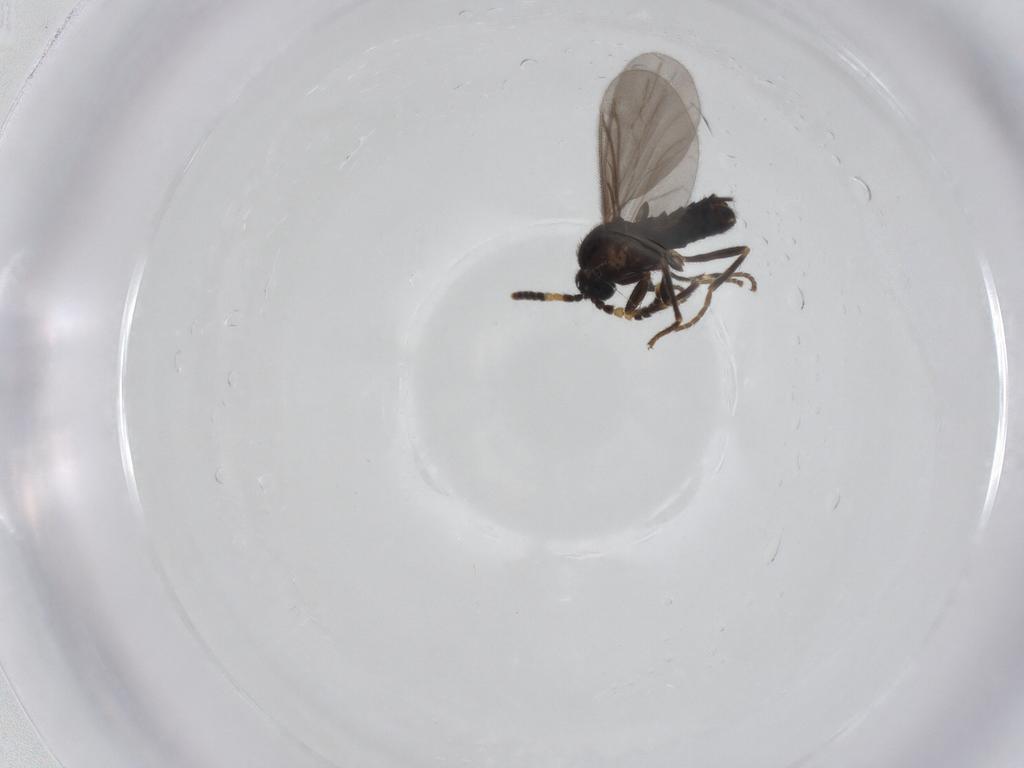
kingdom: Animalia
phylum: Arthropoda
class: Insecta
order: Diptera
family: Scatopsidae
